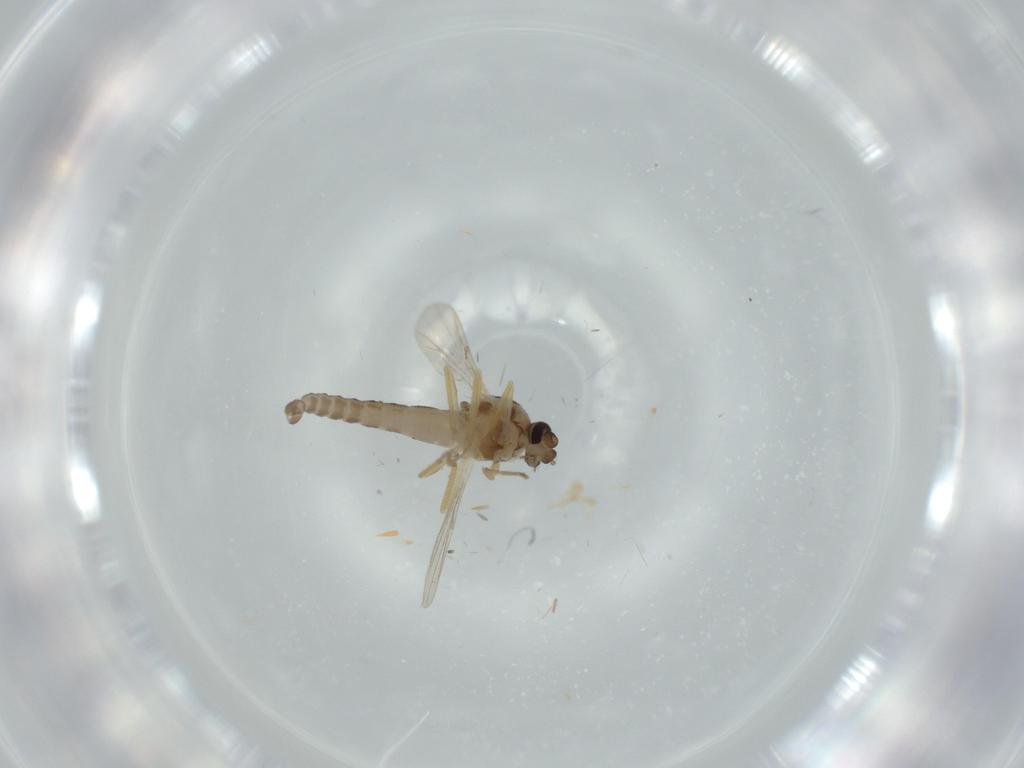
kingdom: Animalia
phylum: Arthropoda
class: Insecta
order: Diptera
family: Ceratopogonidae
